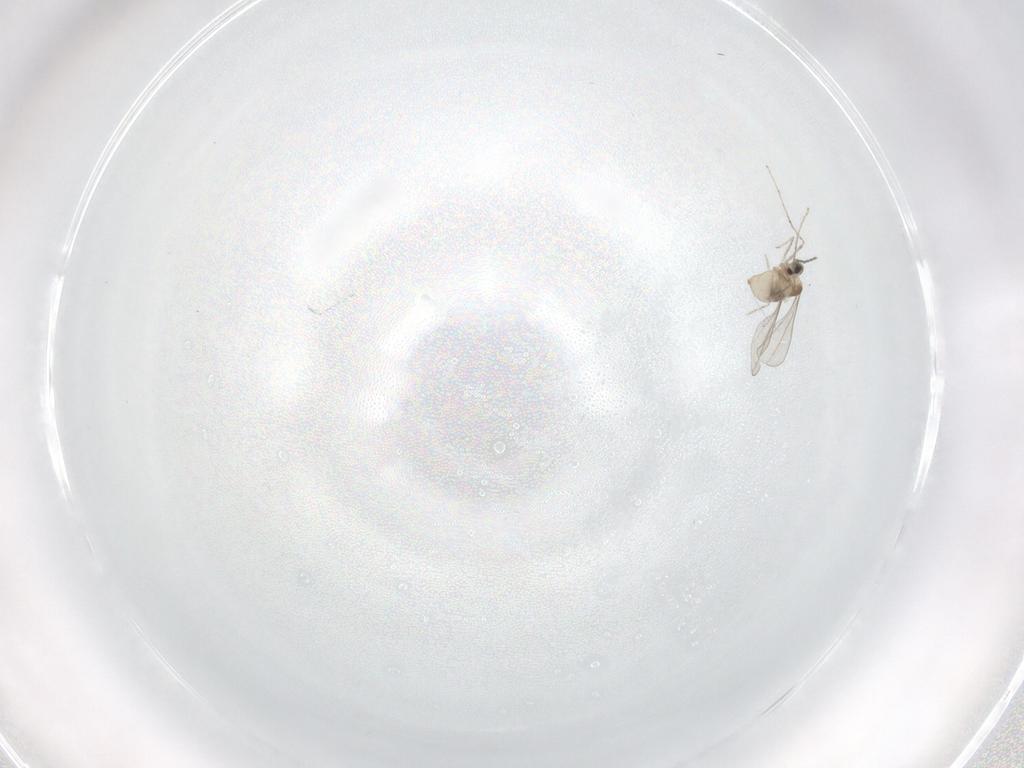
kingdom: Animalia
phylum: Arthropoda
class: Insecta
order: Diptera
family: Cecidomyiidae
